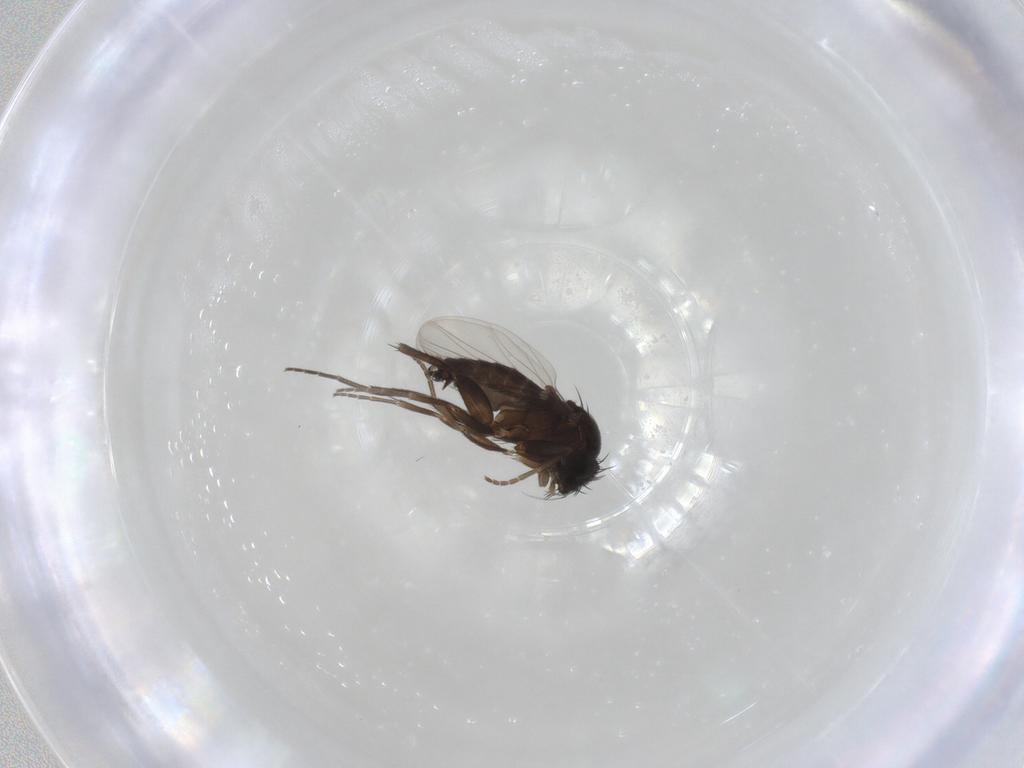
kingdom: Animalia
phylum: Arthropoda
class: Insecta
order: Diptera
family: Phoridae
